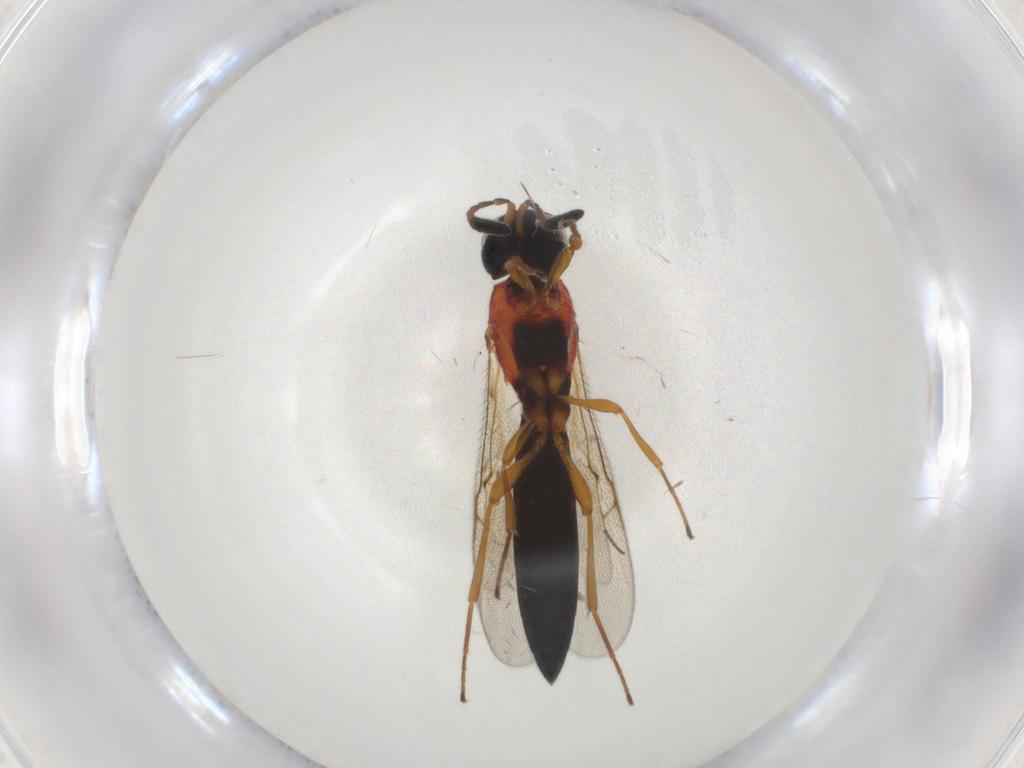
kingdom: Animalia
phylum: Arthropoda
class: Insecta
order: Hymenoptera
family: Scelionidae
